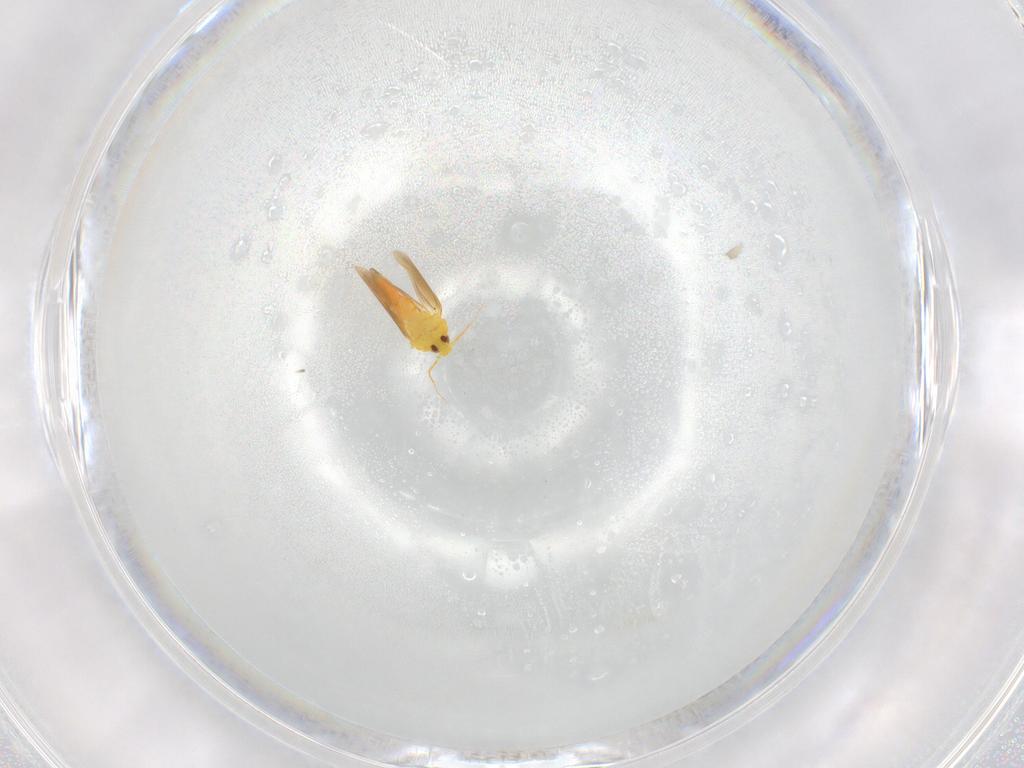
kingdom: Animalia
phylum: Arthropoda
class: Insecta
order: Hemiptera
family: Aleyrodidae
